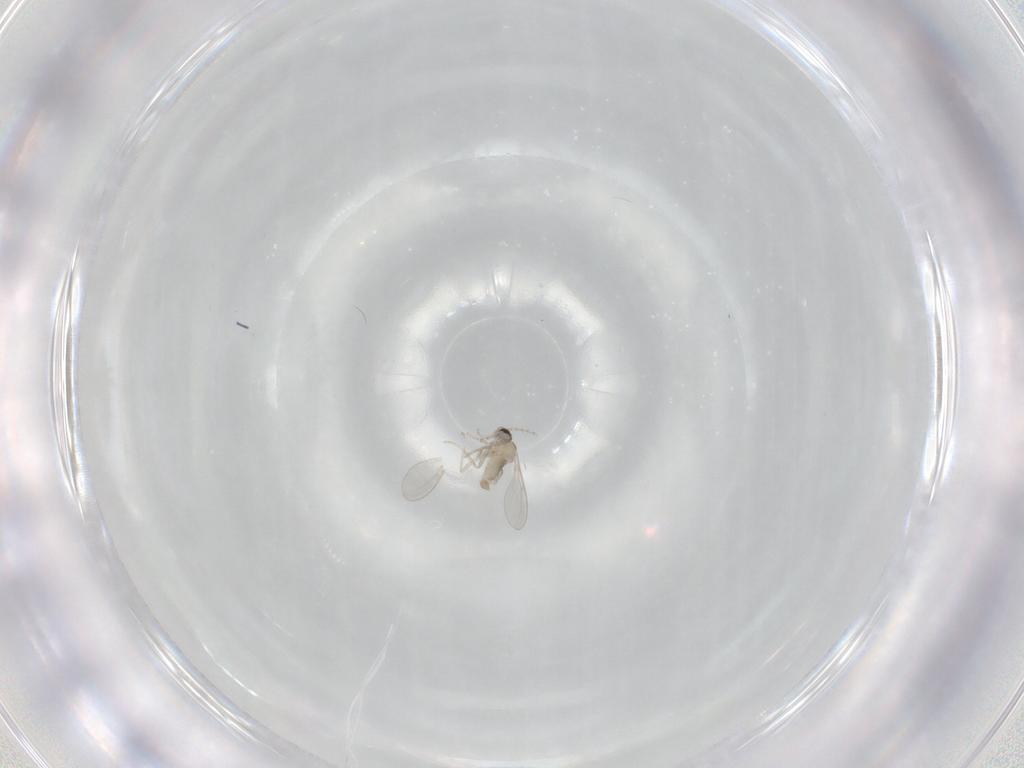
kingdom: Animalia
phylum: Arthropoda
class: Insecta
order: Diptera
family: Cecidomyiidae
